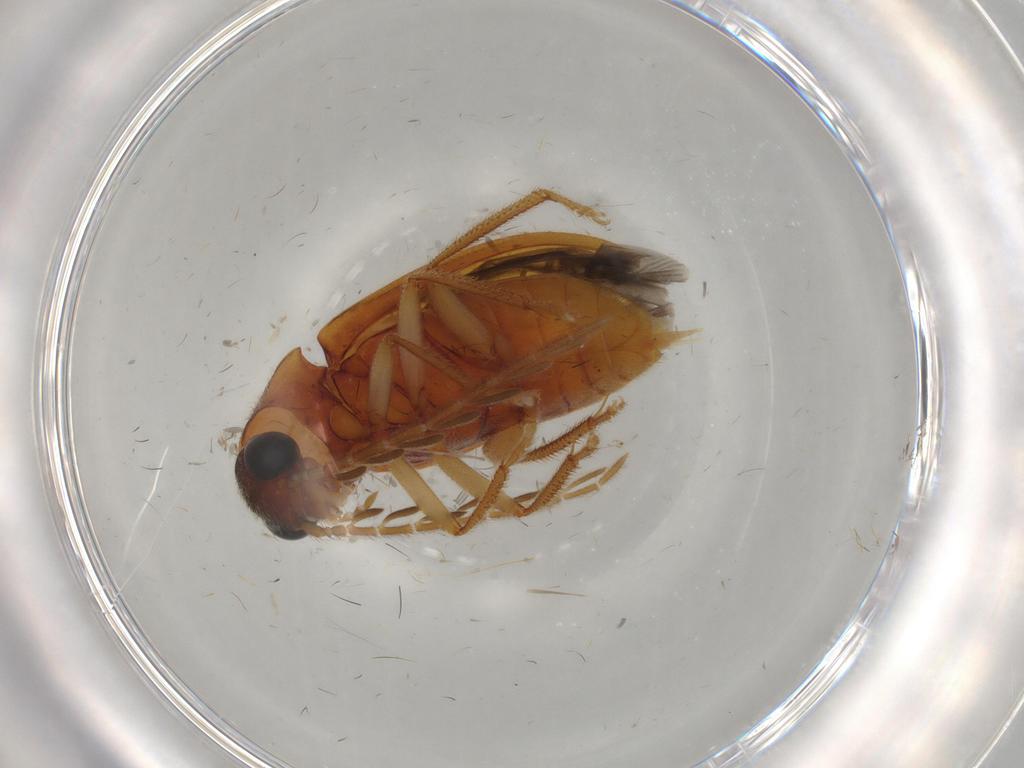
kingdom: Animalia
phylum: Arthropoda
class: Insecta
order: Coleoptera
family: Ptilodactylidae
